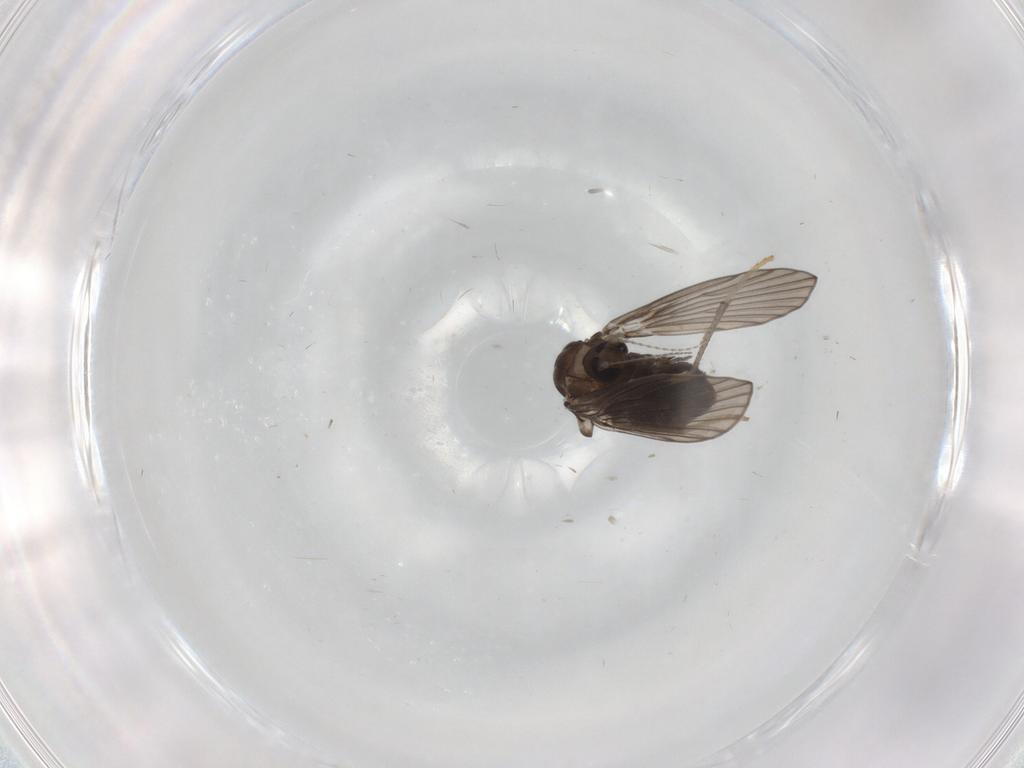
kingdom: Animalia
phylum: Arthropoda
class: Insecta
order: Diptera
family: Psychodidae
